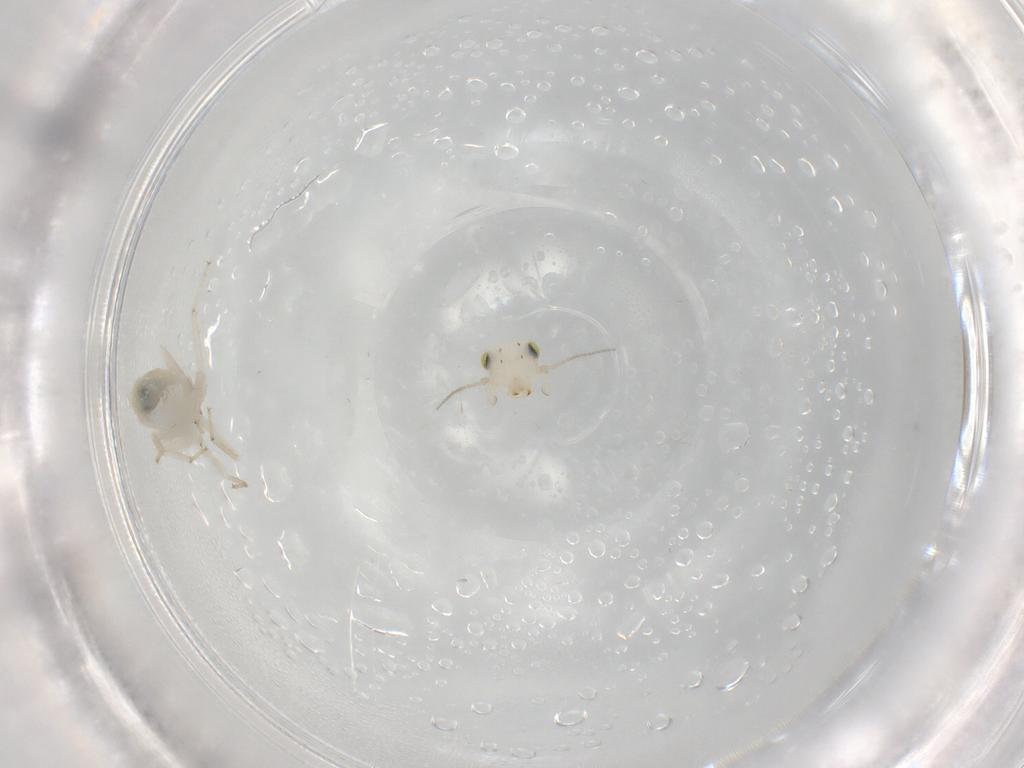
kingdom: Animalia
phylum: Arthropoda
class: Insecta
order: Psocodea
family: Lepidopsocidae
